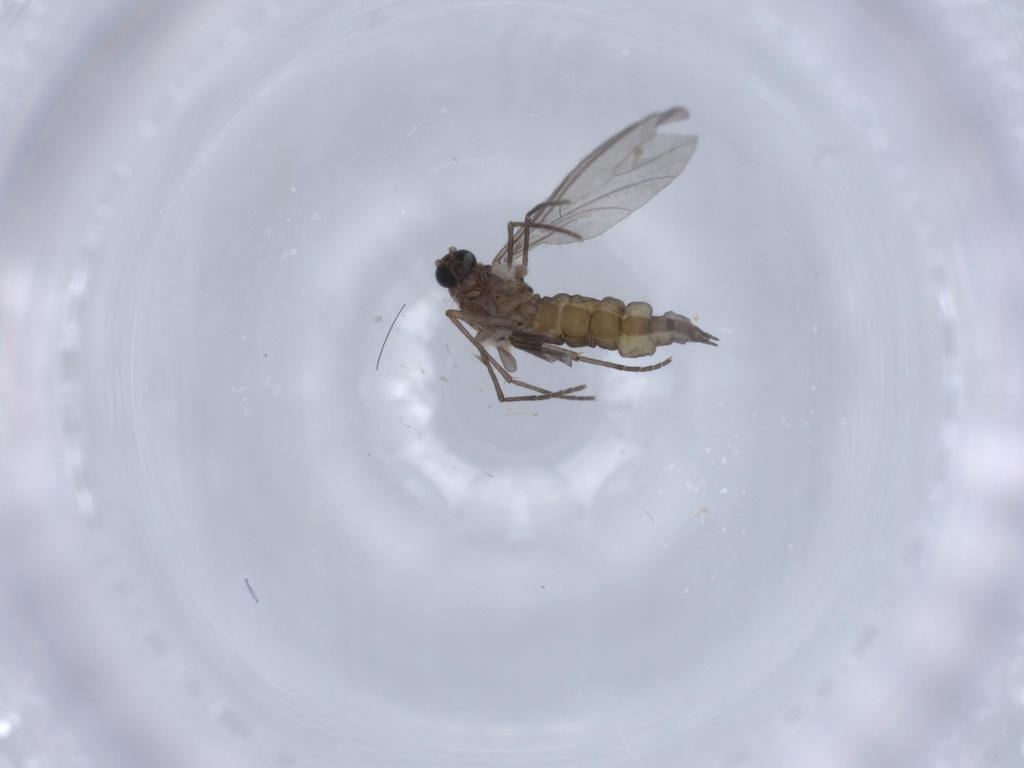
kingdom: Animalia
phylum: Arthropoda
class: Insecta
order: Diptera
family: Sciaridae
